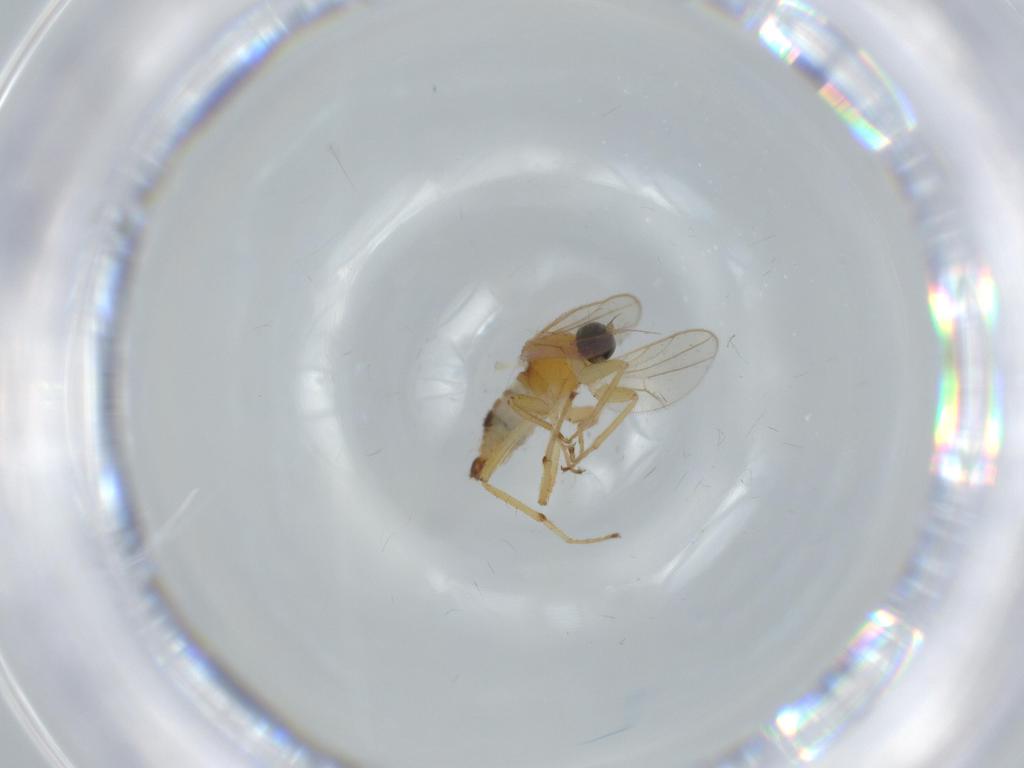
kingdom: Animalia
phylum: Arthropoda
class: Insecta
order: Diptera
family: Hybotidae
